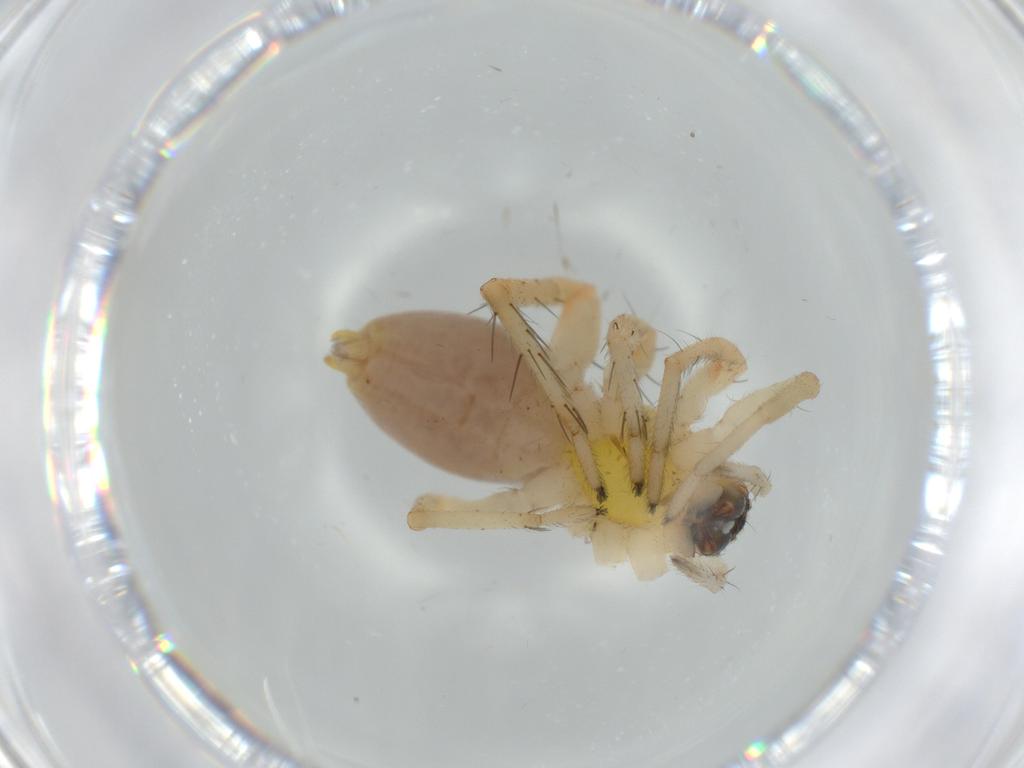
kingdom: Animalia
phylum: Arthropoda
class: Arachnida
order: Araneae
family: Anyphaenidae
